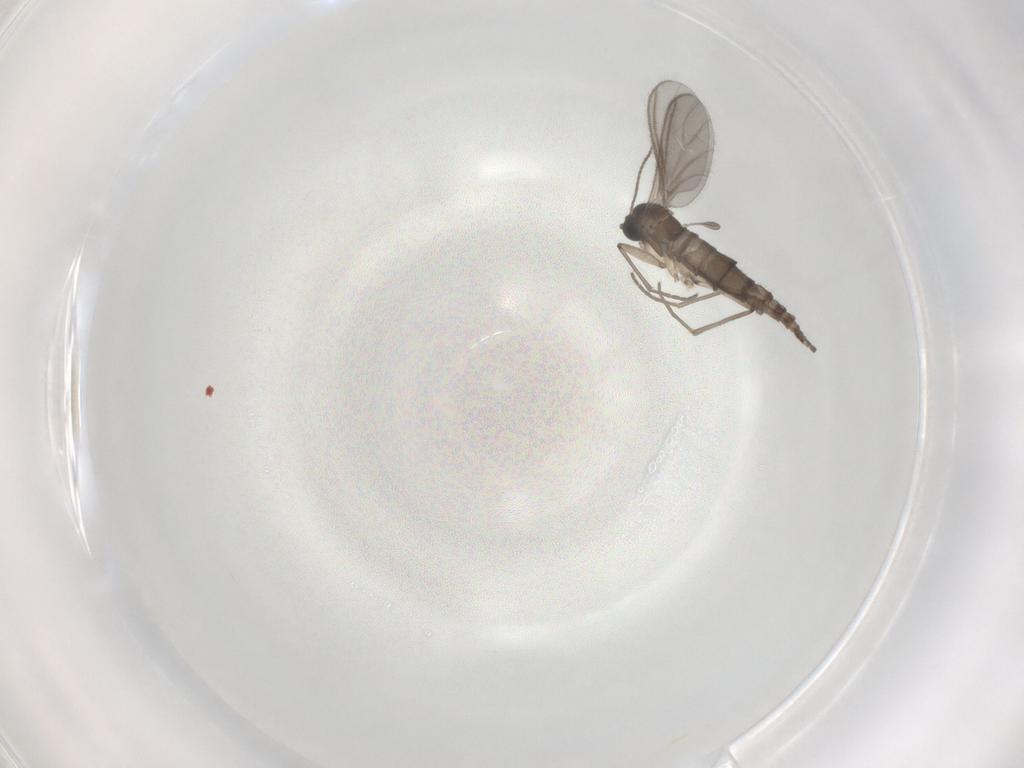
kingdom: Animalia
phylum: Arthropoda
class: Insecta
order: Diptera
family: Sciaridae
